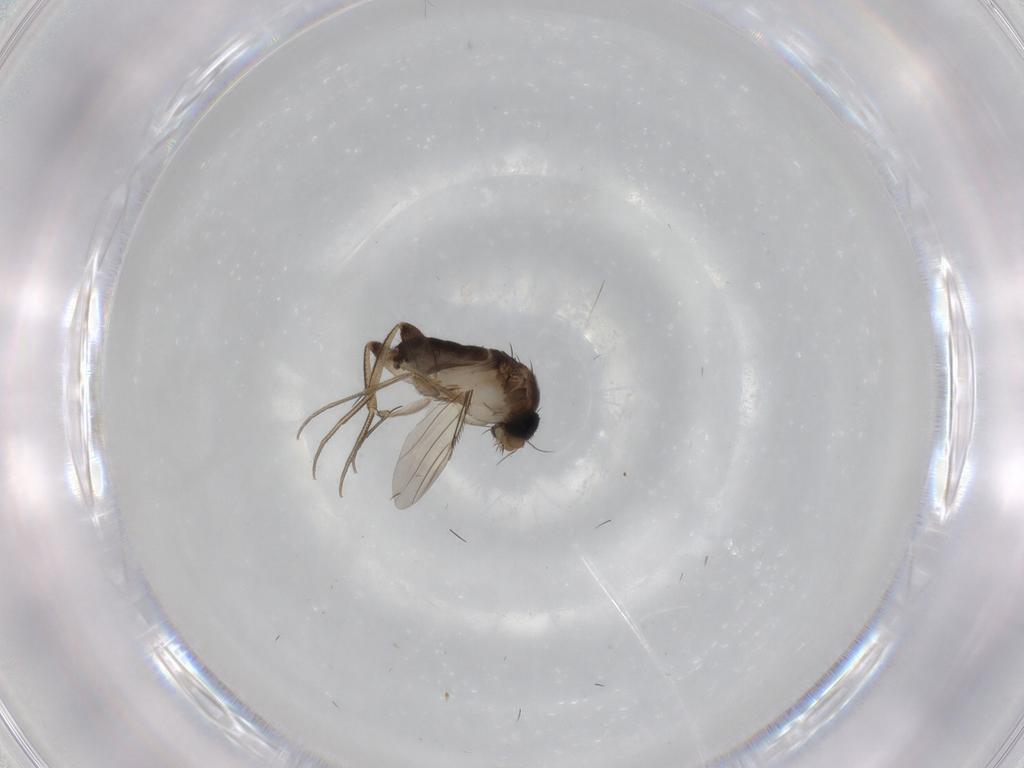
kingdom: Animalia
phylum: Arthropoda
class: Insecta
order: Diptera
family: Phoridae
